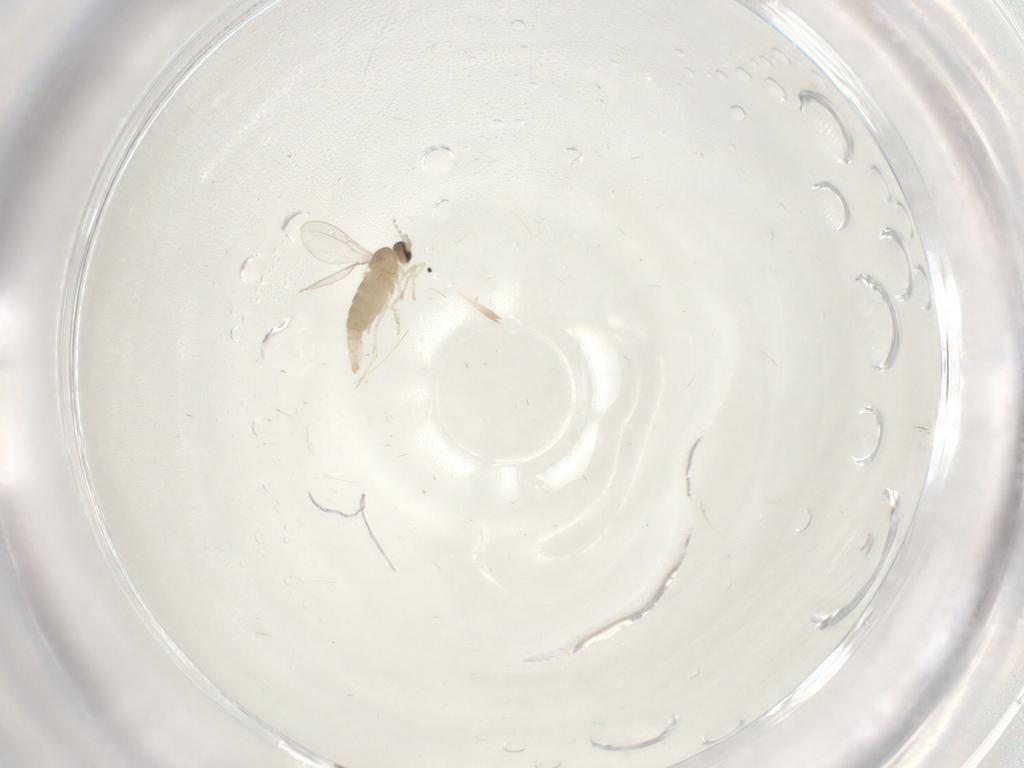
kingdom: Animalia
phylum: Arthropoda
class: Insecta
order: Diptera
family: Cecidomyiidae
